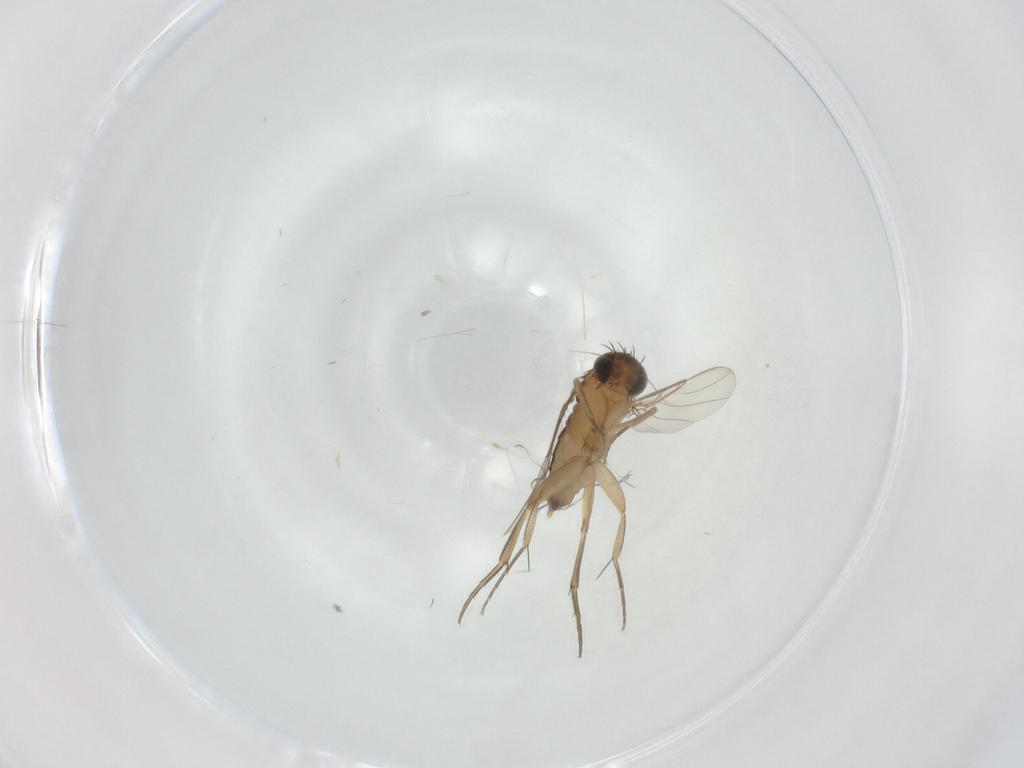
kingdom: Animalia
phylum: Arthropoda
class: Insecta
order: Diptera
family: Phoridae
